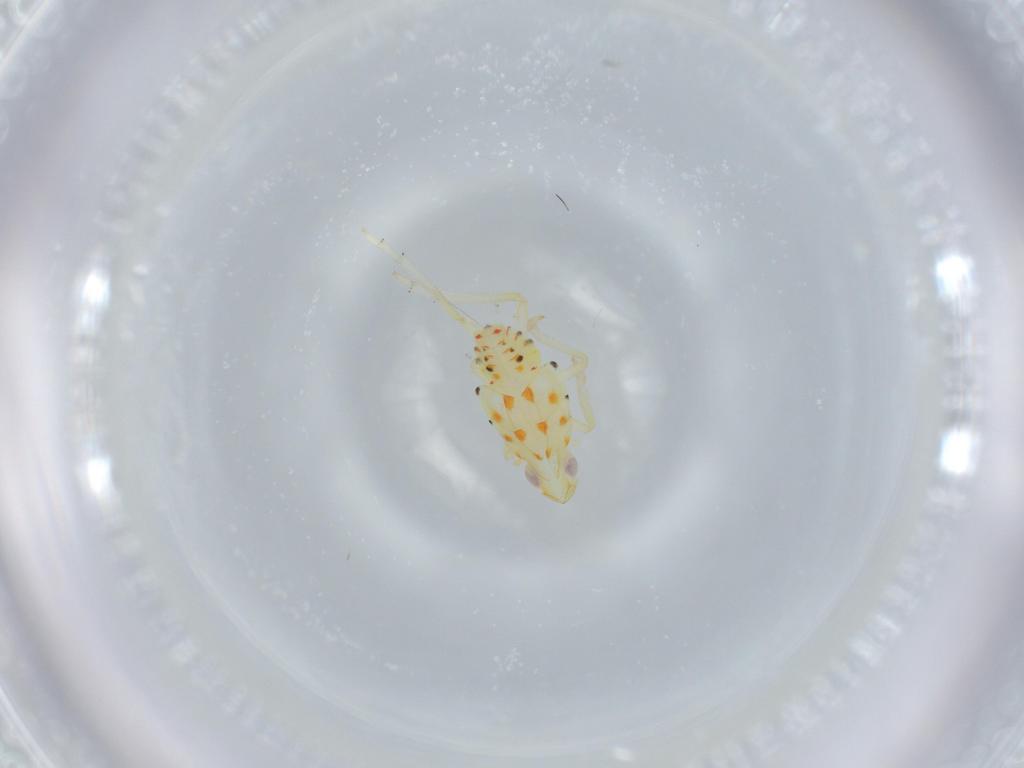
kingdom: Animalia
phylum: Arthropoda
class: Insecta
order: Hemiptera
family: Tropiduchidae
